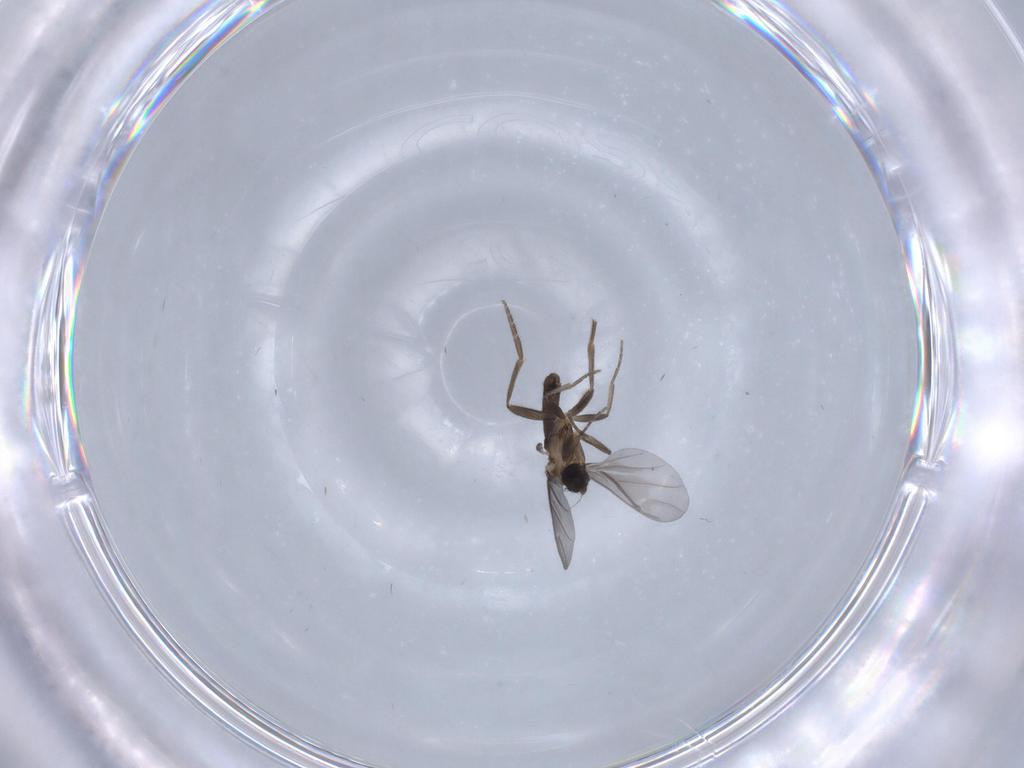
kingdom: Animalia
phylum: Arthropoda
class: Insecta
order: Diptera
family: Phoridae
